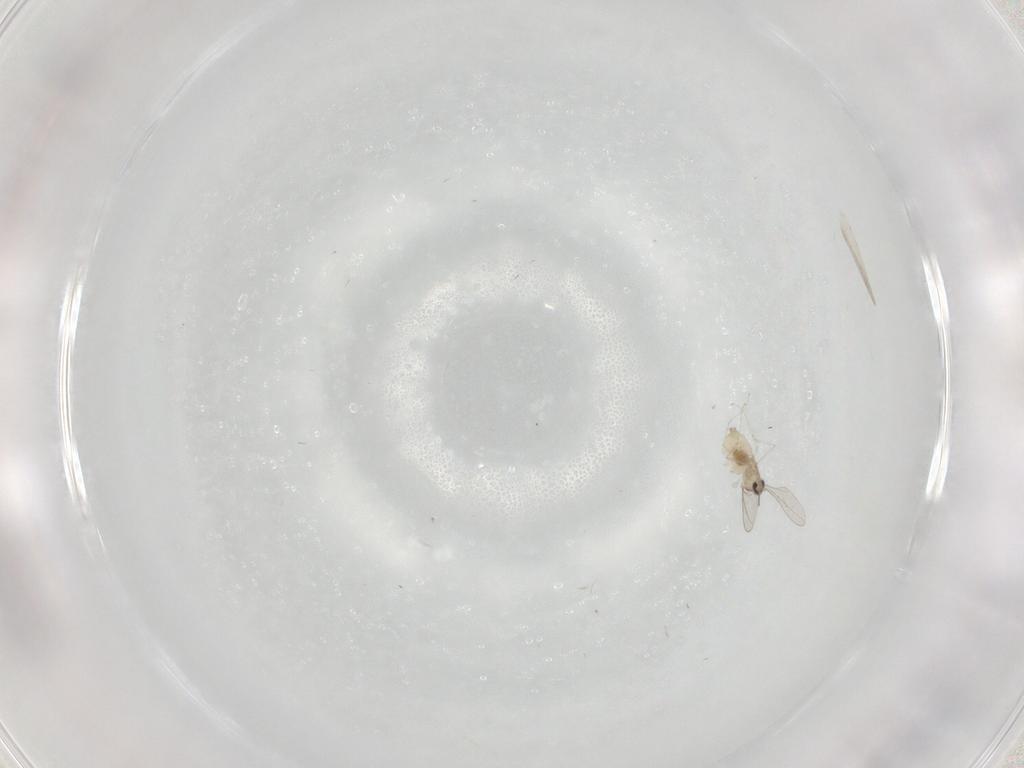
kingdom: Animalia
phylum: Arthropoda
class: Insecta
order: Diptera
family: Cecidomyiidae
